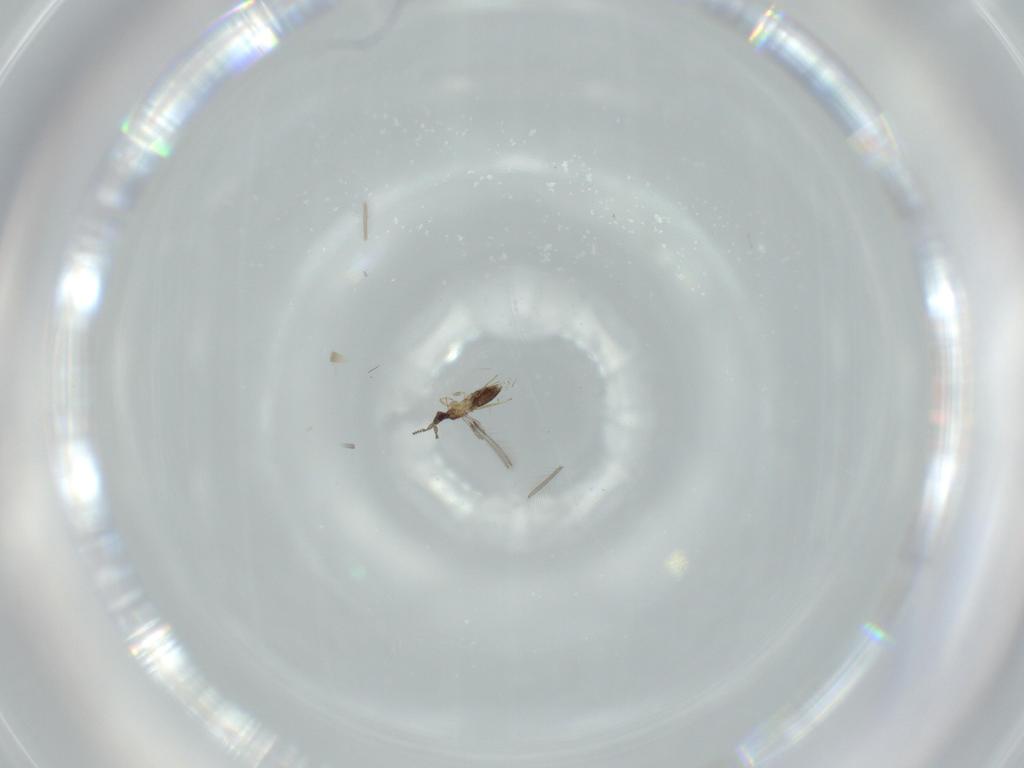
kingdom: Animalia
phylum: Arthropoda
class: Insecta
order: Hymenoptera
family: Mymaridae
